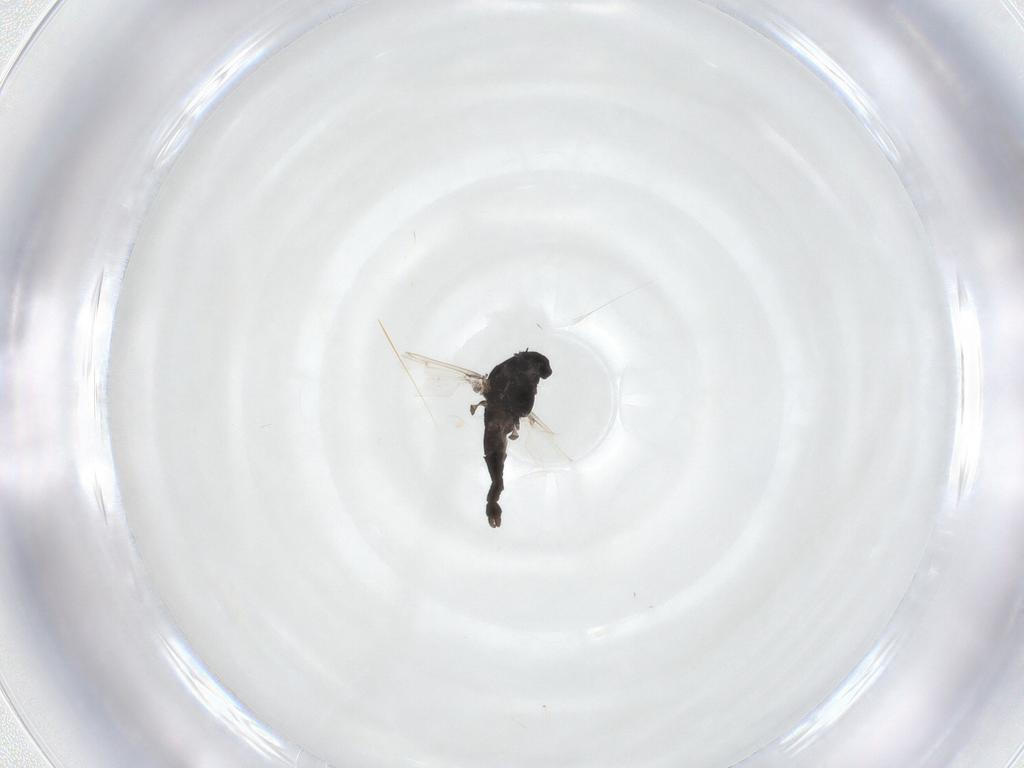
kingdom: Animalia
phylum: Arthropoda
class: Insecta
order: Diptera
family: Chironomidae
